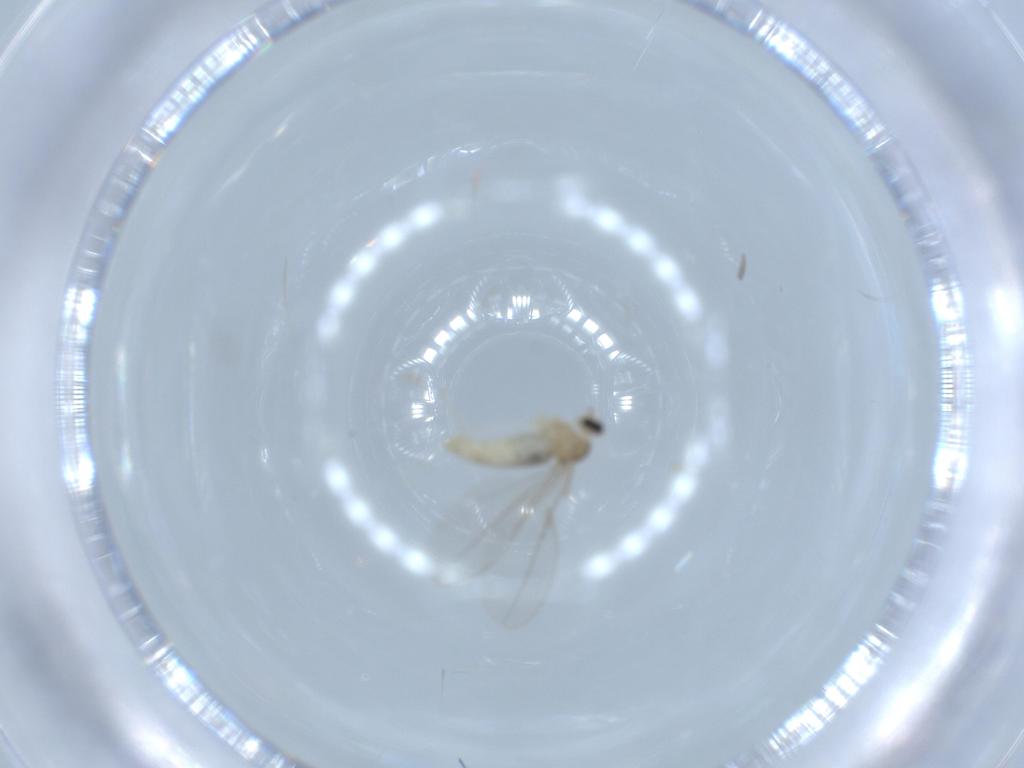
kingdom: Animalia
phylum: Arthropoda
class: Insecta
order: Diptera
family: Cecidomyiidae
